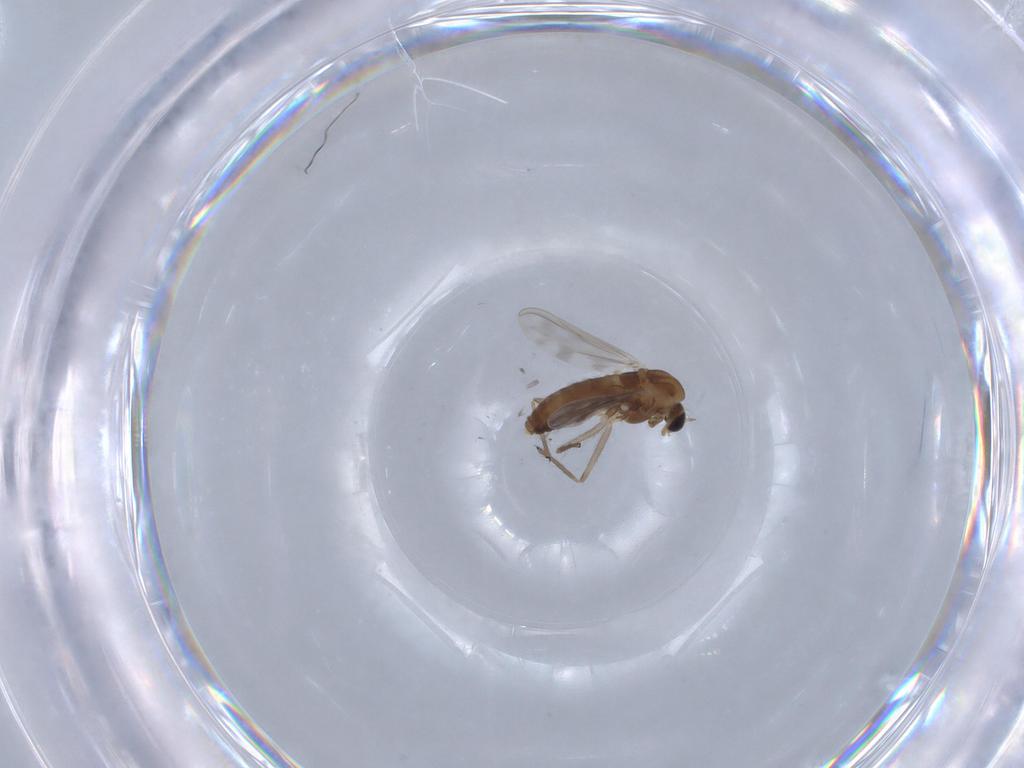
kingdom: Animalia
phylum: Arthropoda
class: Insecta
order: Diptera
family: Chironomidae
